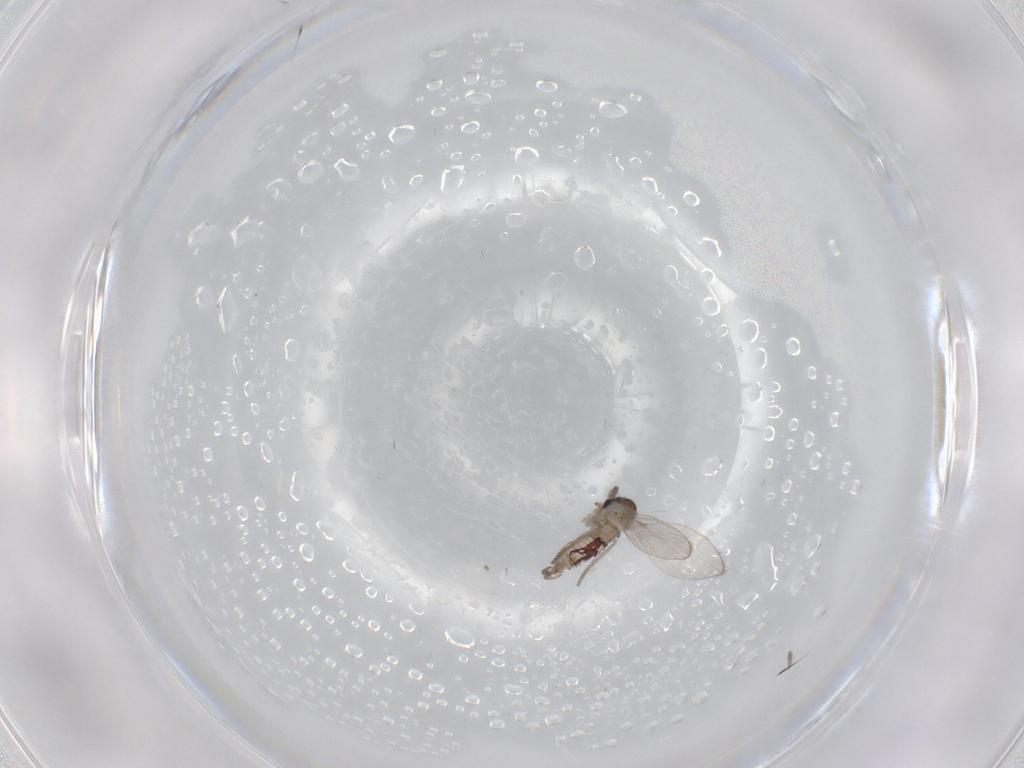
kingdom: Animalia
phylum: Arthropoda
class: Insecta
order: Diptera
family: Psychodidae
